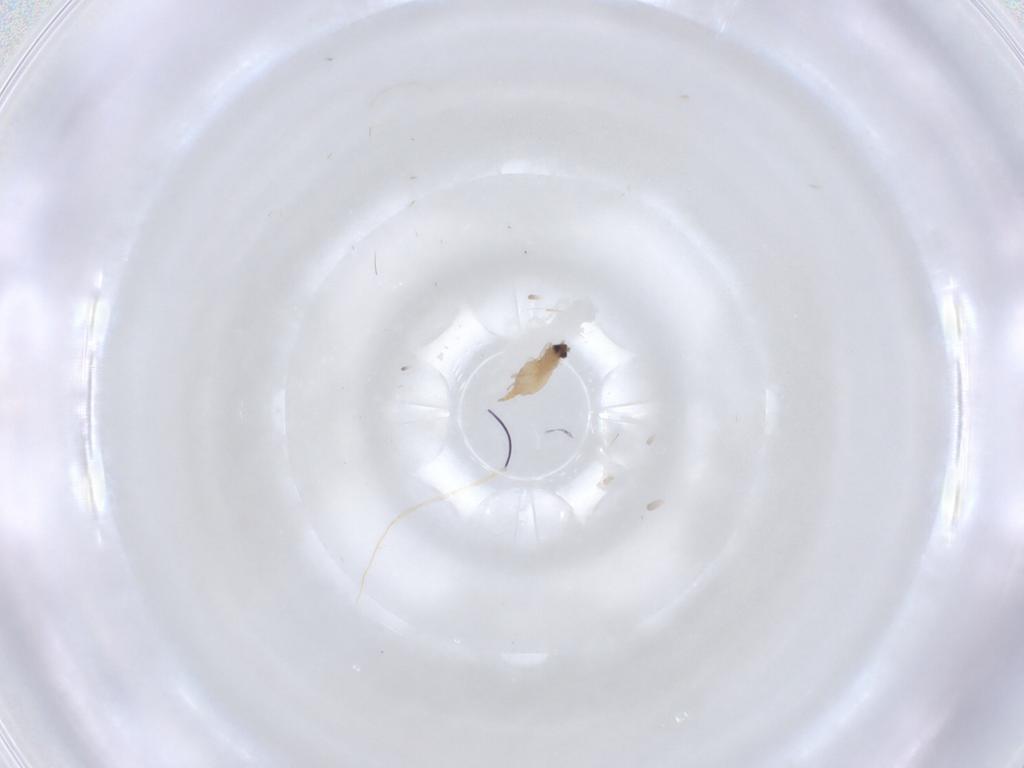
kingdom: Animalia
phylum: Arthropoda
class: Insecta
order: Diptera
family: Cecidomyiidae
